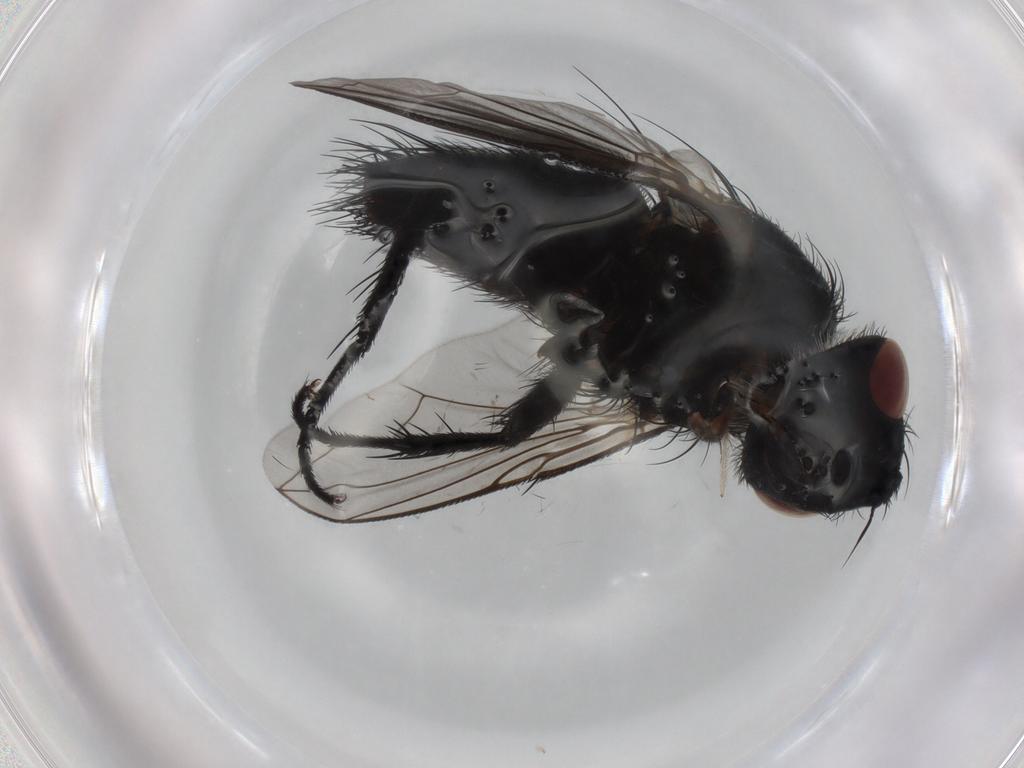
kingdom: Animalia
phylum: Arthropoda
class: Insecta
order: Diptera
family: Tachinidae
